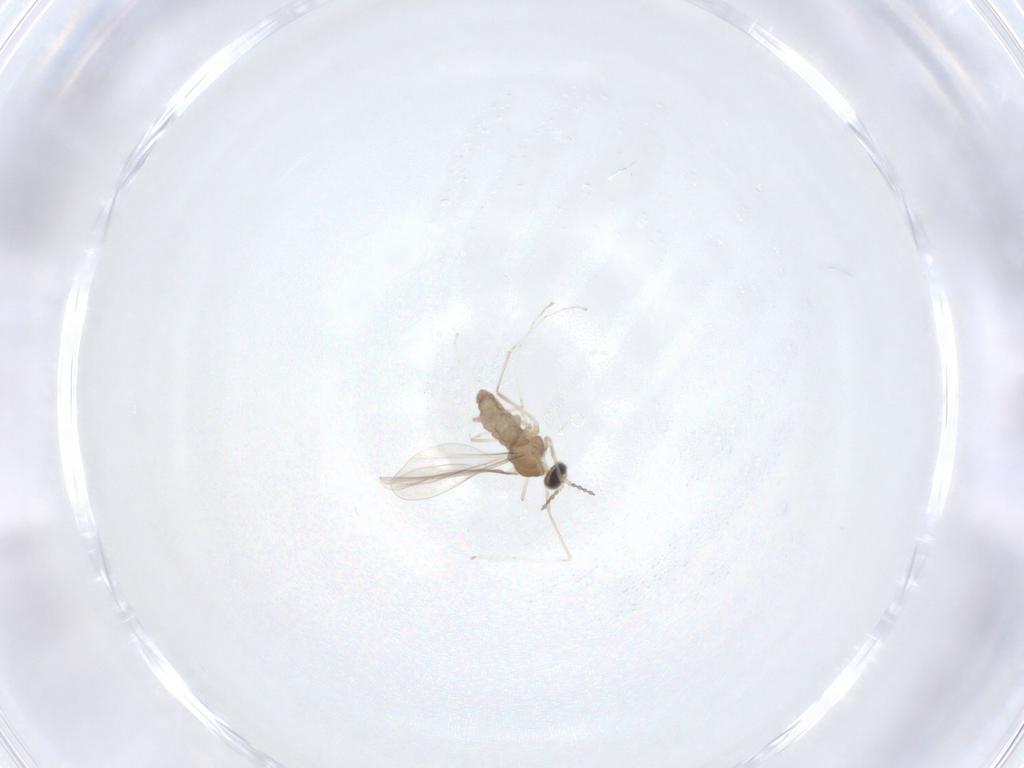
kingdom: Animalia
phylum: Arthropoda
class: Insecta
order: Diptera
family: Cecidomyiidae
